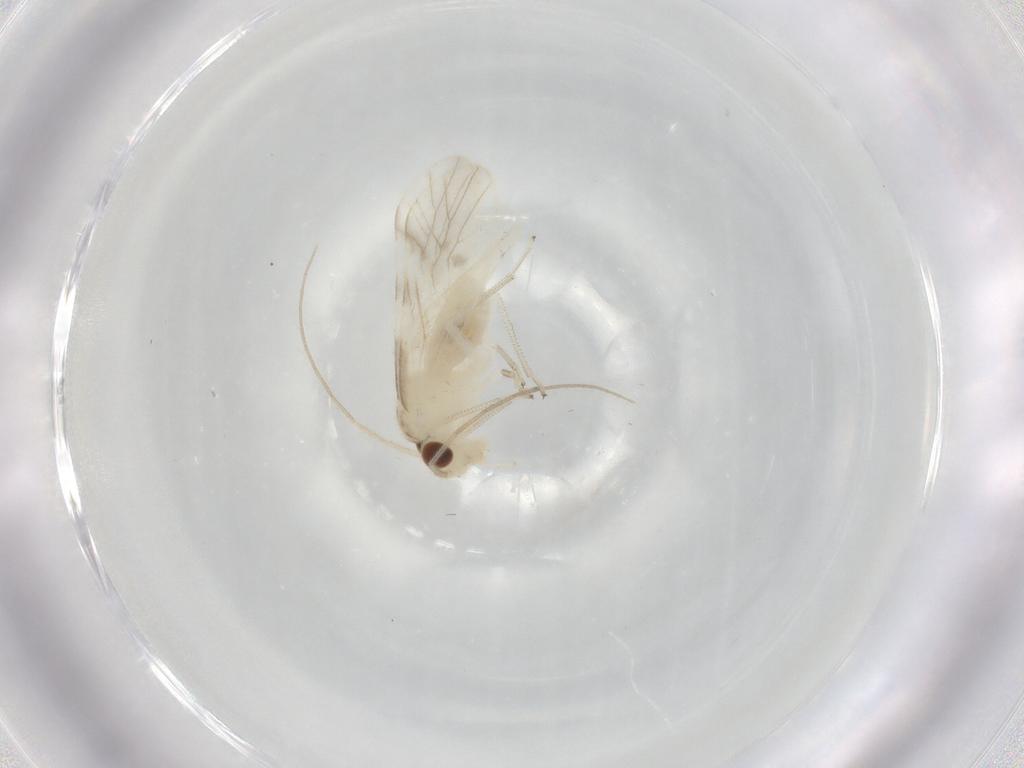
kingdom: Animalia
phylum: Arthropoda
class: Insecta
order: Psocodea
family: Caeciliusidae
